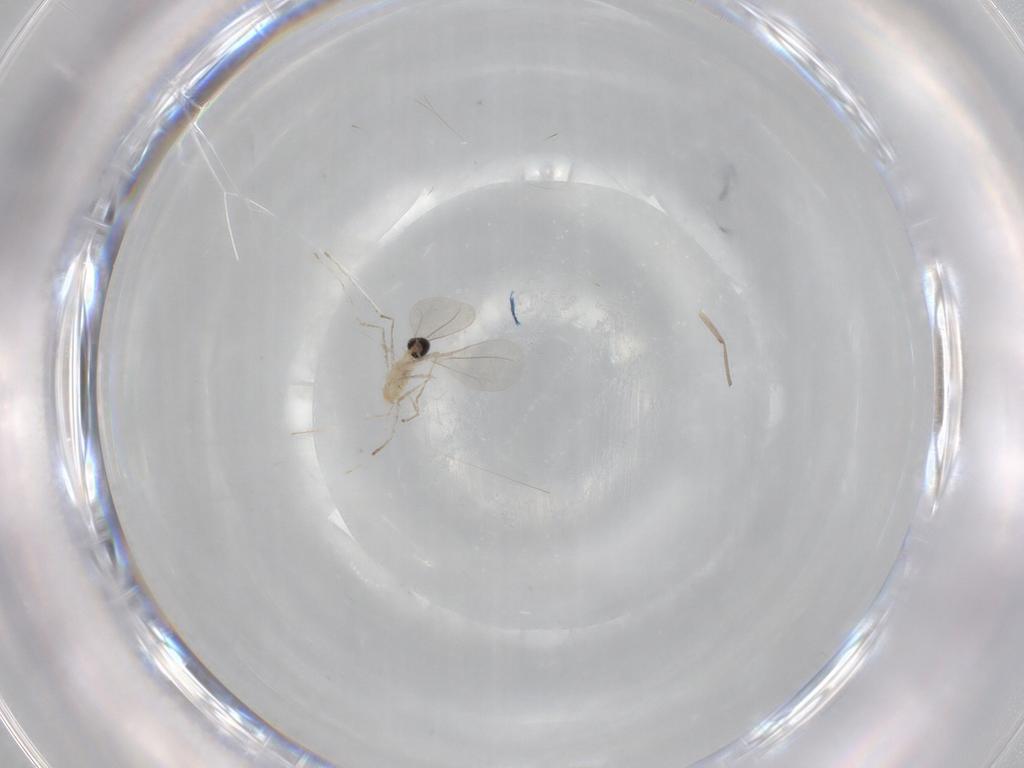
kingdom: Animalia
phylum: Arthropoda
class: Insecta
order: Diptera
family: Chironomidae
